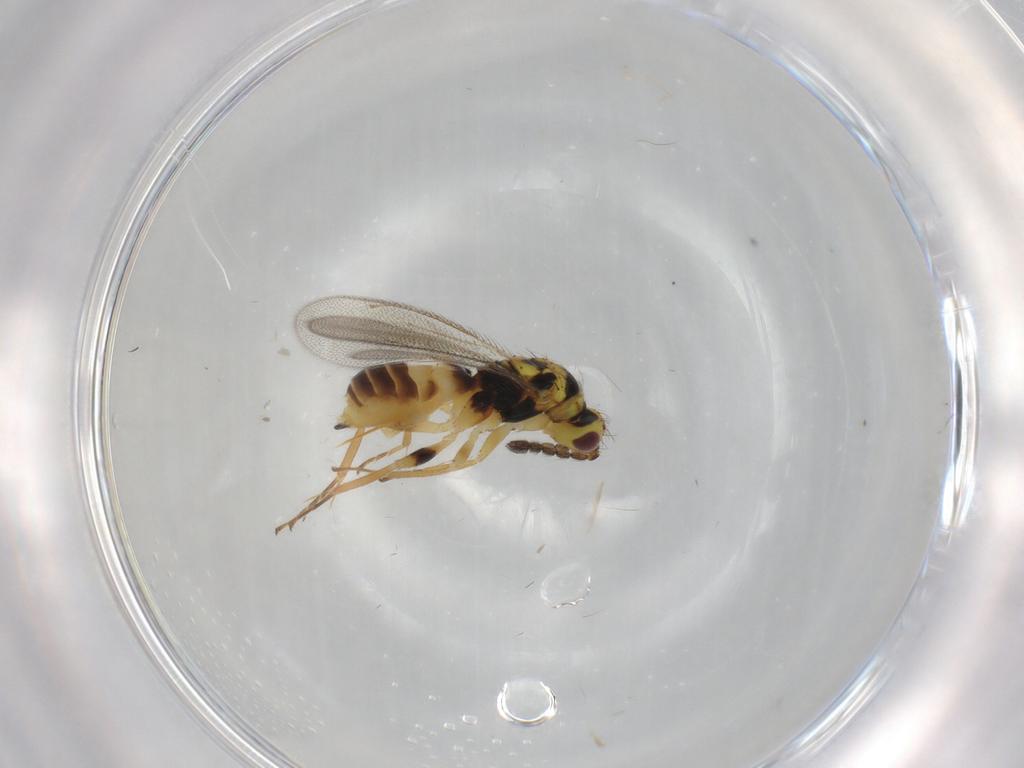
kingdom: Animalia
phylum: Arthropoda
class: Insecta
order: Hymenoptera
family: Eulophidae
